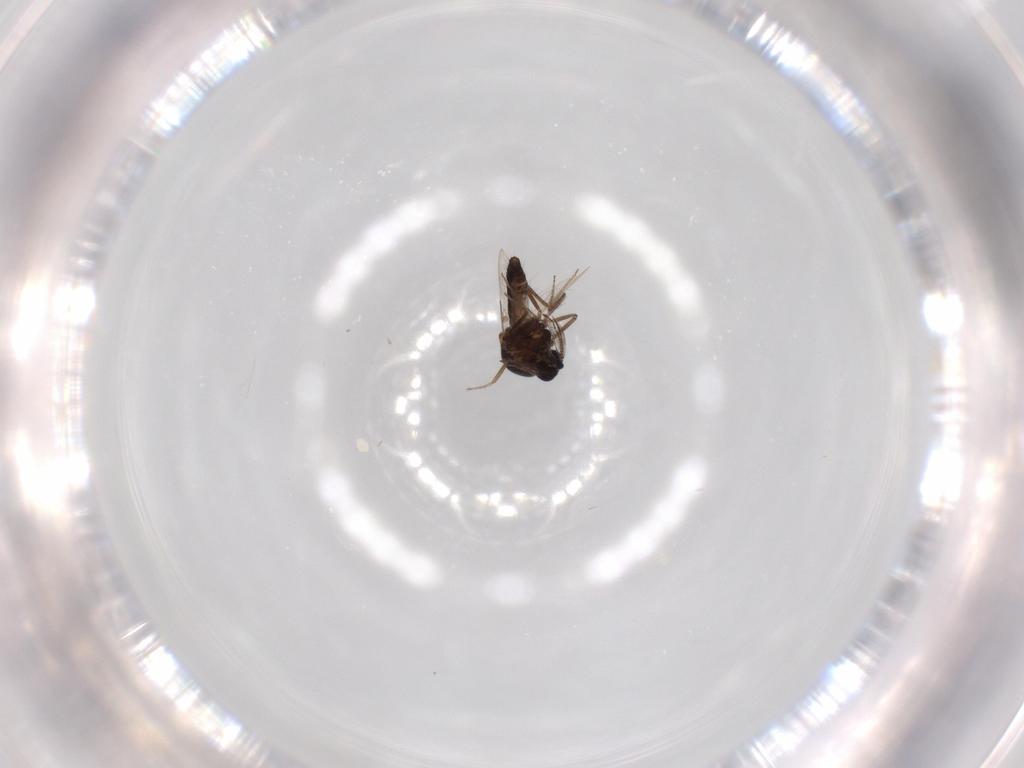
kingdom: Animalia
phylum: Arthropoda
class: Insecta
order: Diptera
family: Ceratopogonidae
